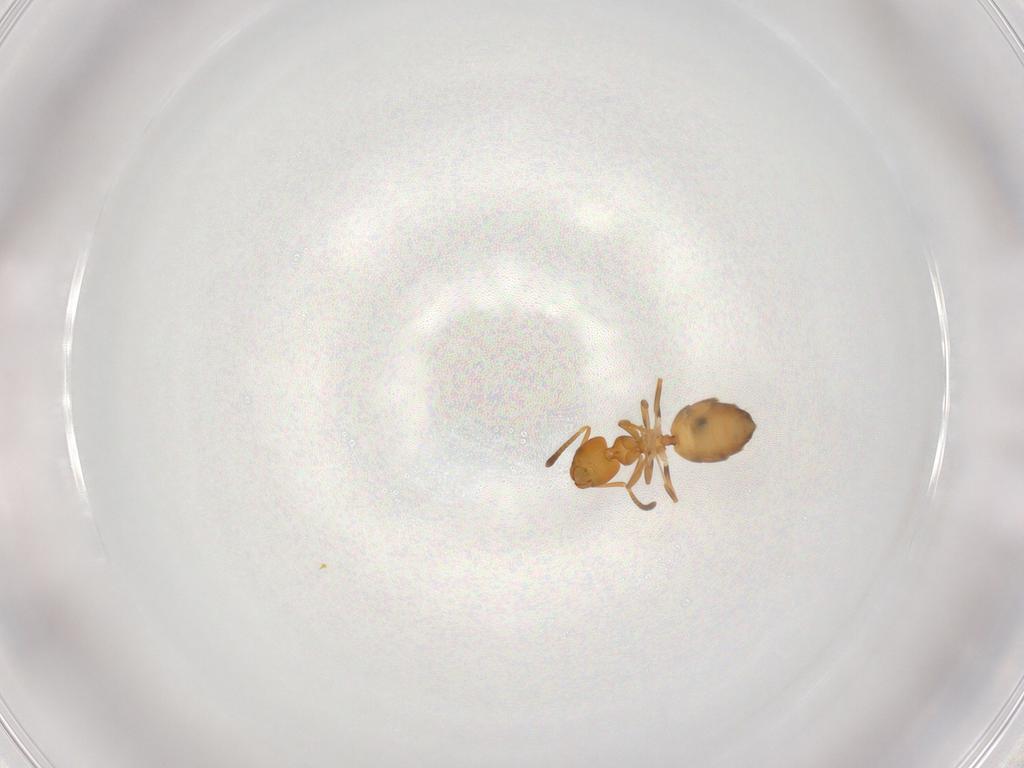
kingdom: Animalia
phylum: Arthropoda
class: Insecta
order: Hymenoptera
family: Formicidae
